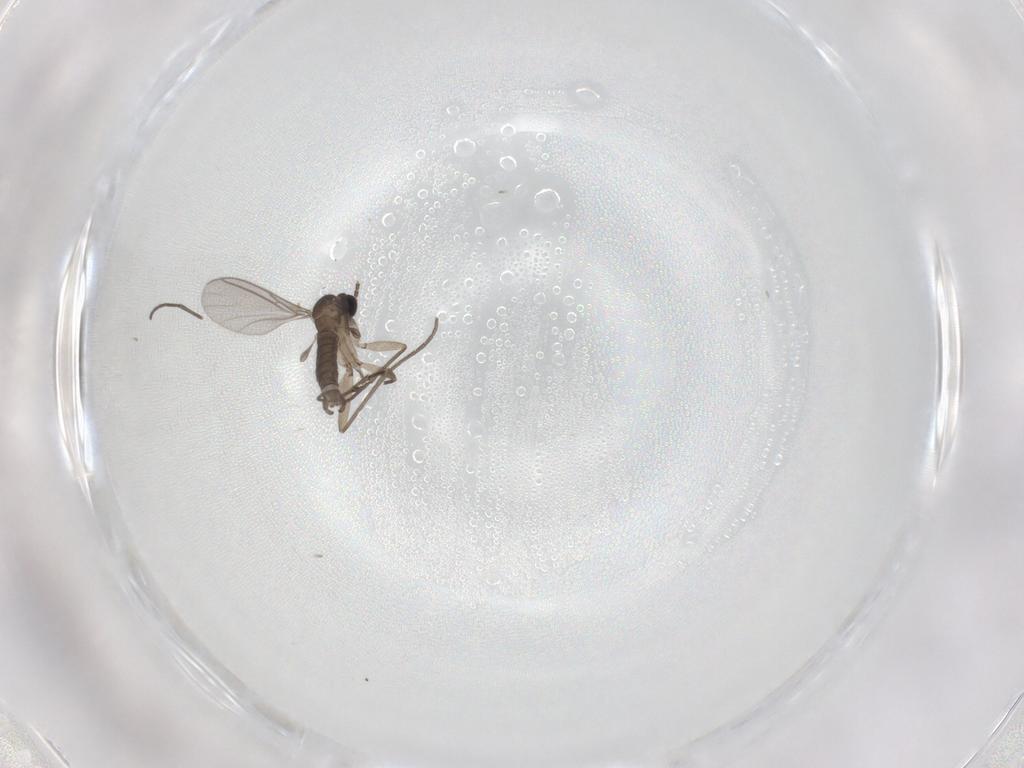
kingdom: Animalia
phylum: Arthropoda
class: Insecta
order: Diptera
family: Sciaridae
